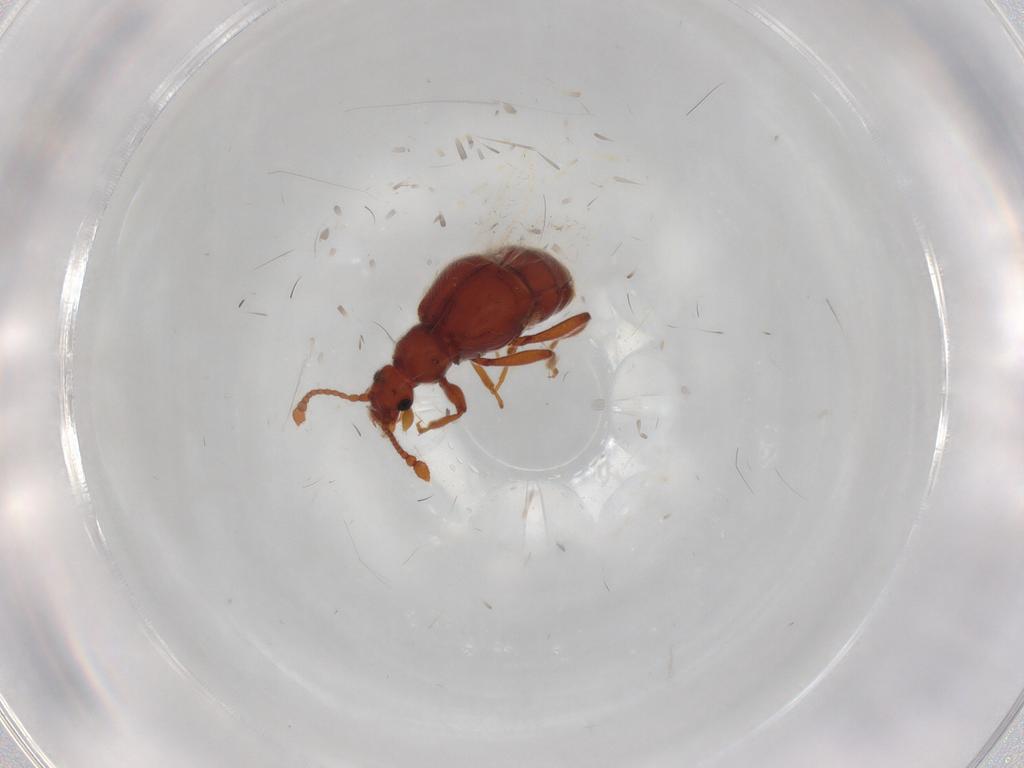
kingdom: Animalia
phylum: Arthropoda
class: Insecta
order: Coleoptera
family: Staphylinidae
